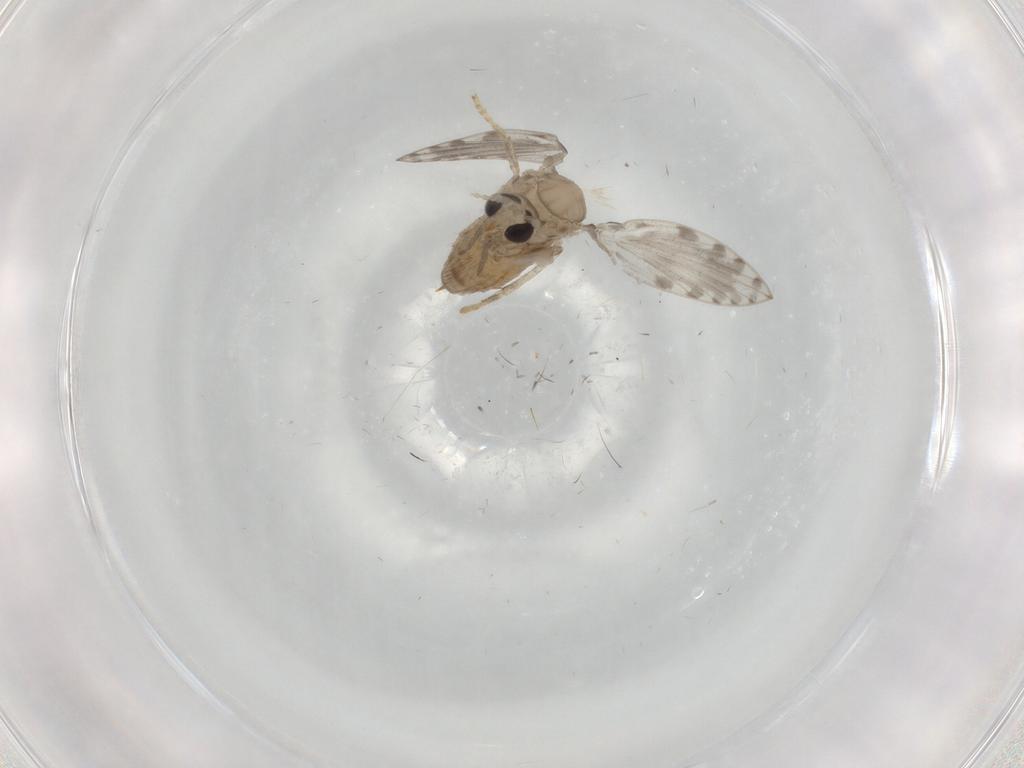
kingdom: Animalia
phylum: Arthropoda
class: Insecta
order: Diptera
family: Psychodidae
